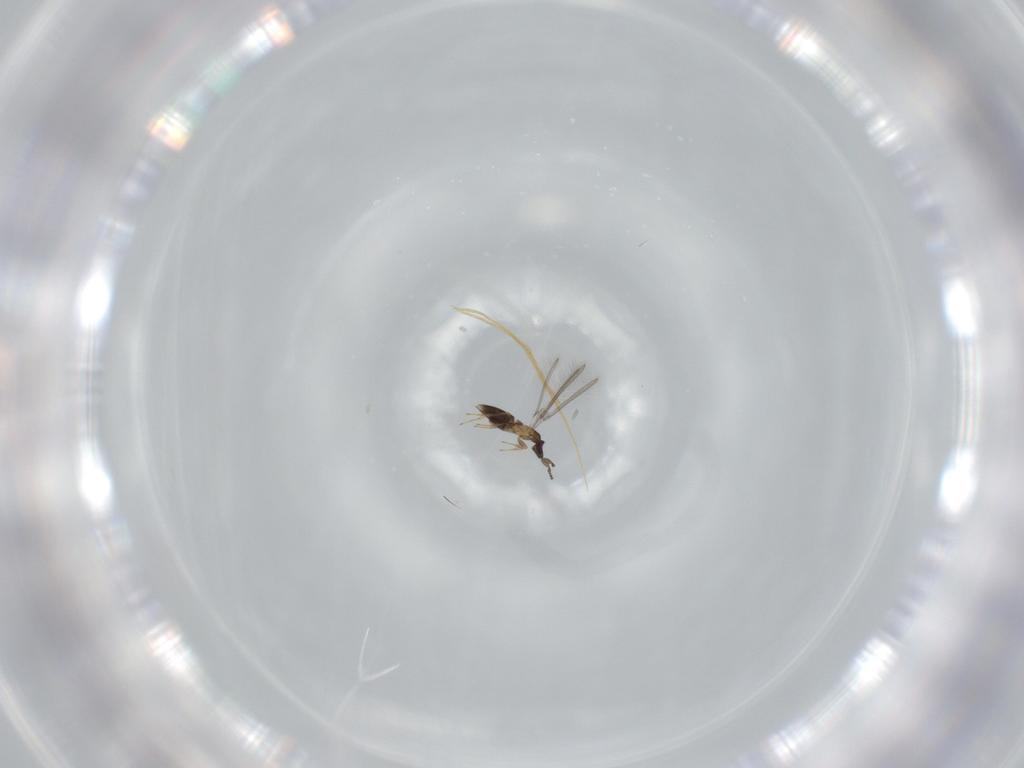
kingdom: Animalia
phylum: Arthropoda
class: Insecta
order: Hymenoptera
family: Mymaridae
